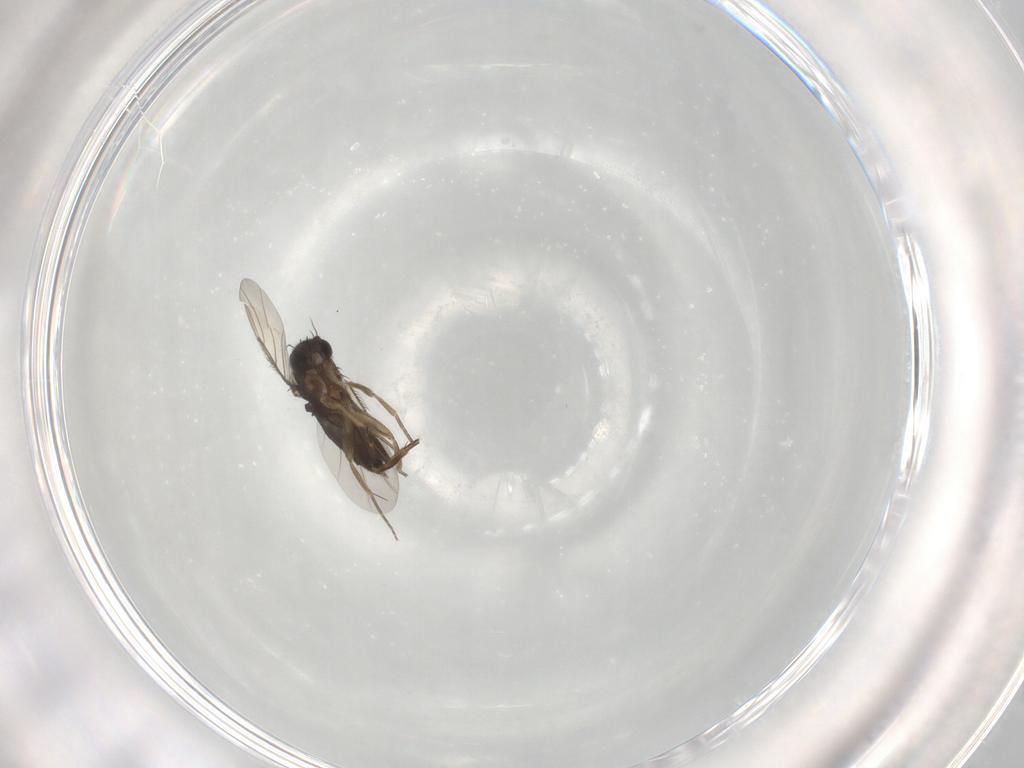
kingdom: Animalia
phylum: Arthropoda
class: Insecta
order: Diptera
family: Phoridae
